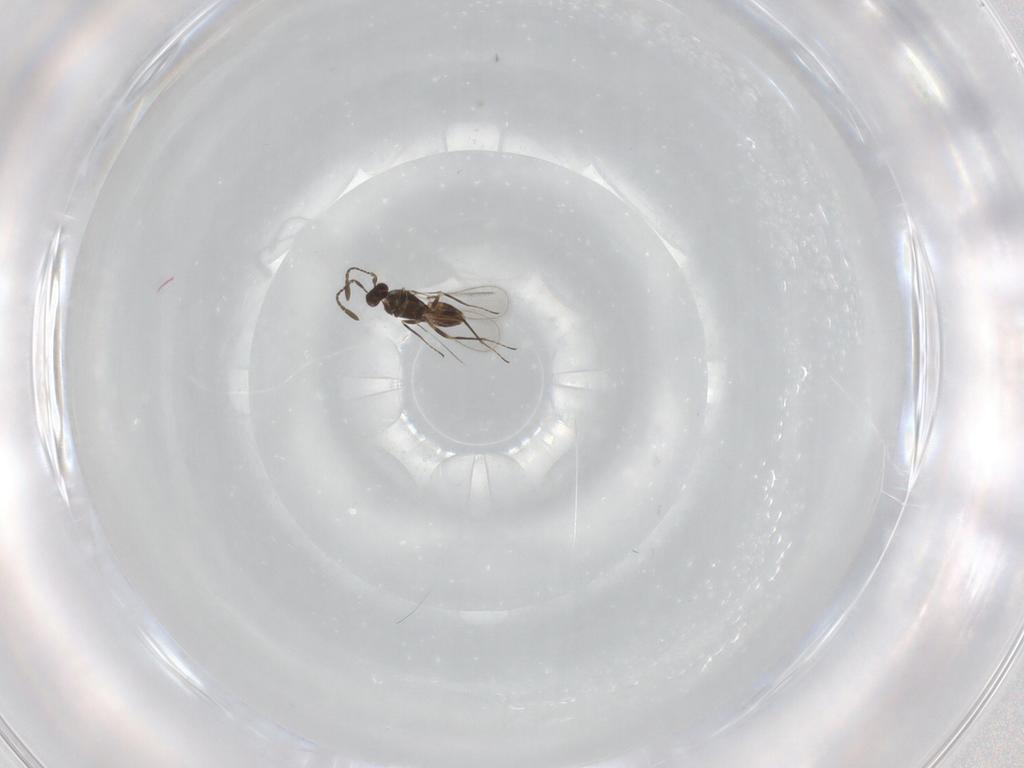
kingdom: Animalia
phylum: Arthropoda
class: Insecta
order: Hymenoptera
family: Mymaridae
